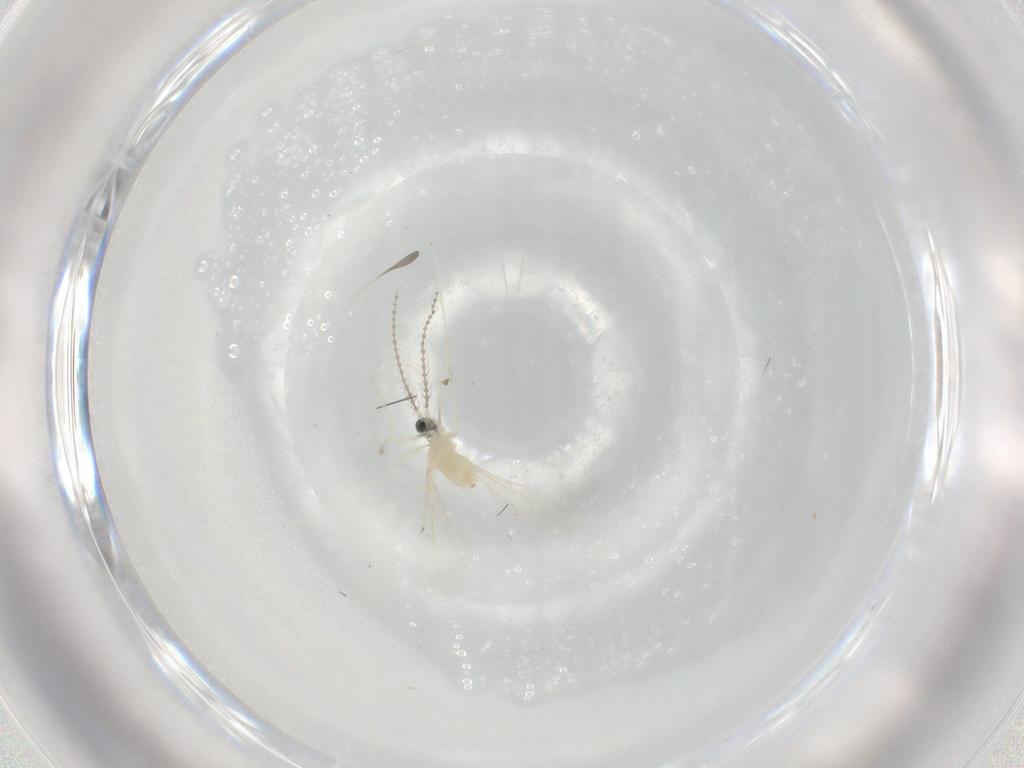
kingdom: Animalia
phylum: Arthropoda
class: Insecta
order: Diptera
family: Cecidomyiidae
